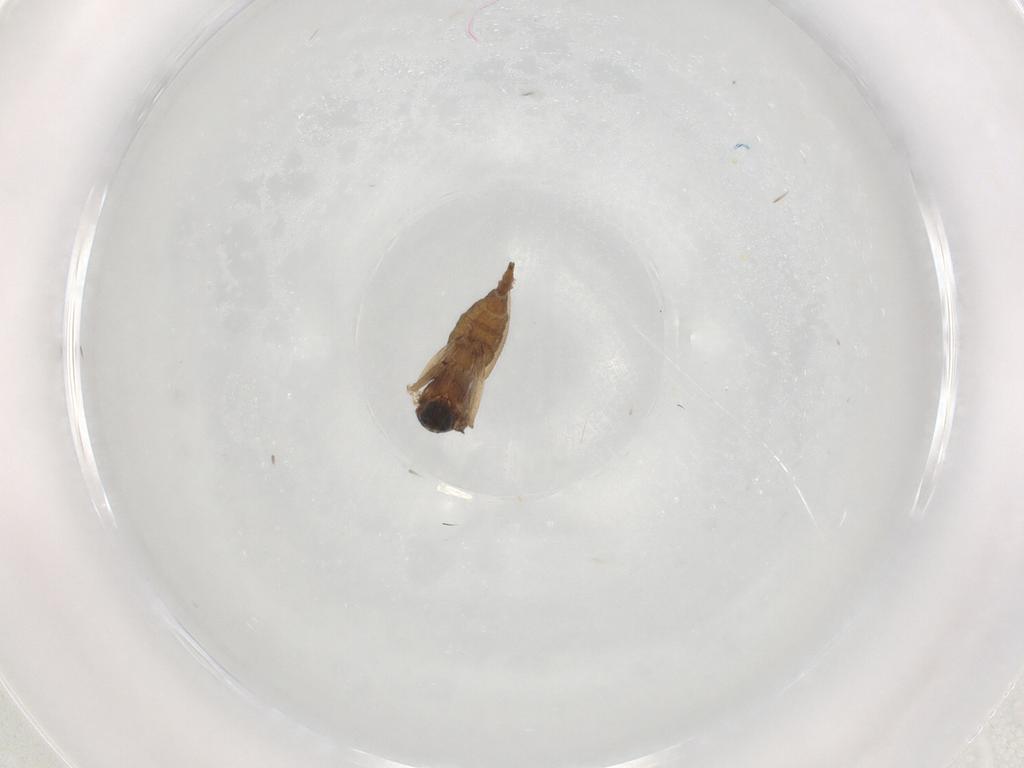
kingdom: Animalia
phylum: Arthropoda
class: Insecta
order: Diptera
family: Sciaridae
